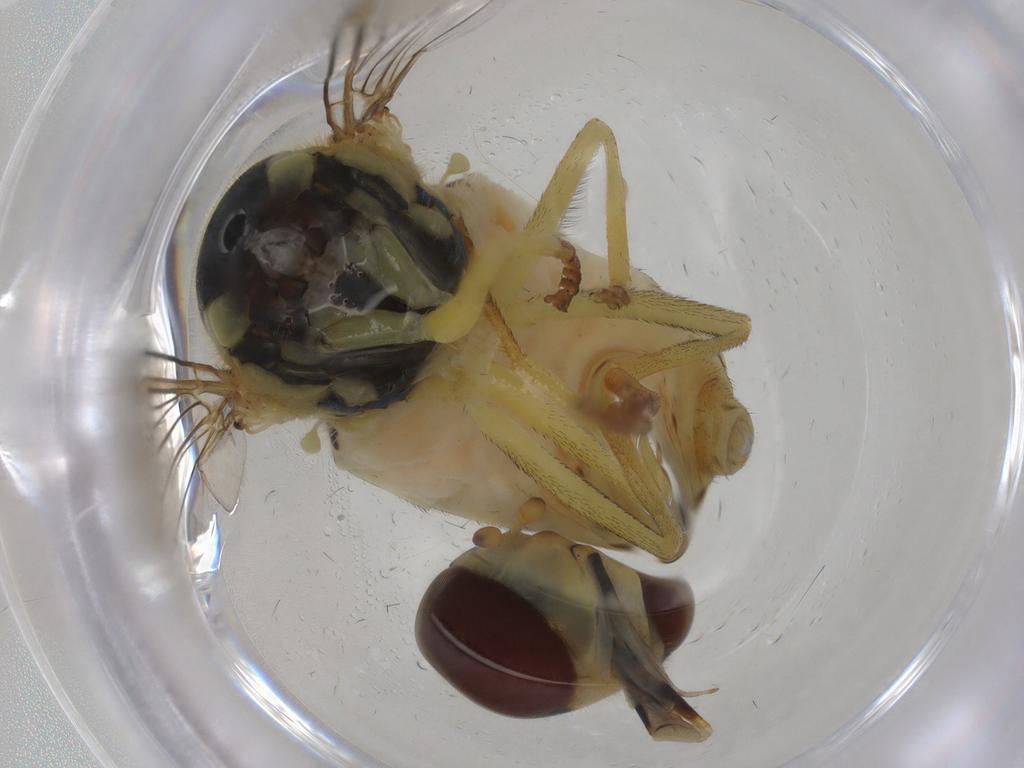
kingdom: Animalia
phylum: Arthropoda
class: Insecta
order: Diptera
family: Syrphidae
